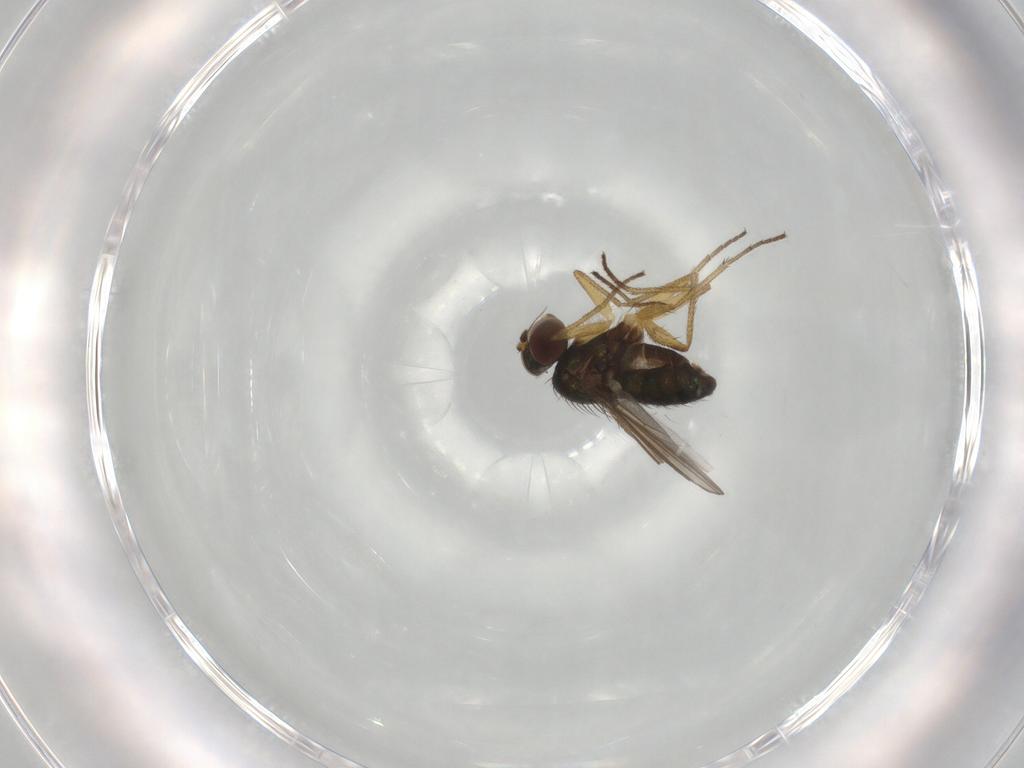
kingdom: Animalia
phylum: Arthropoda
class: Insecta
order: Diptera
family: Dolichopodidae
